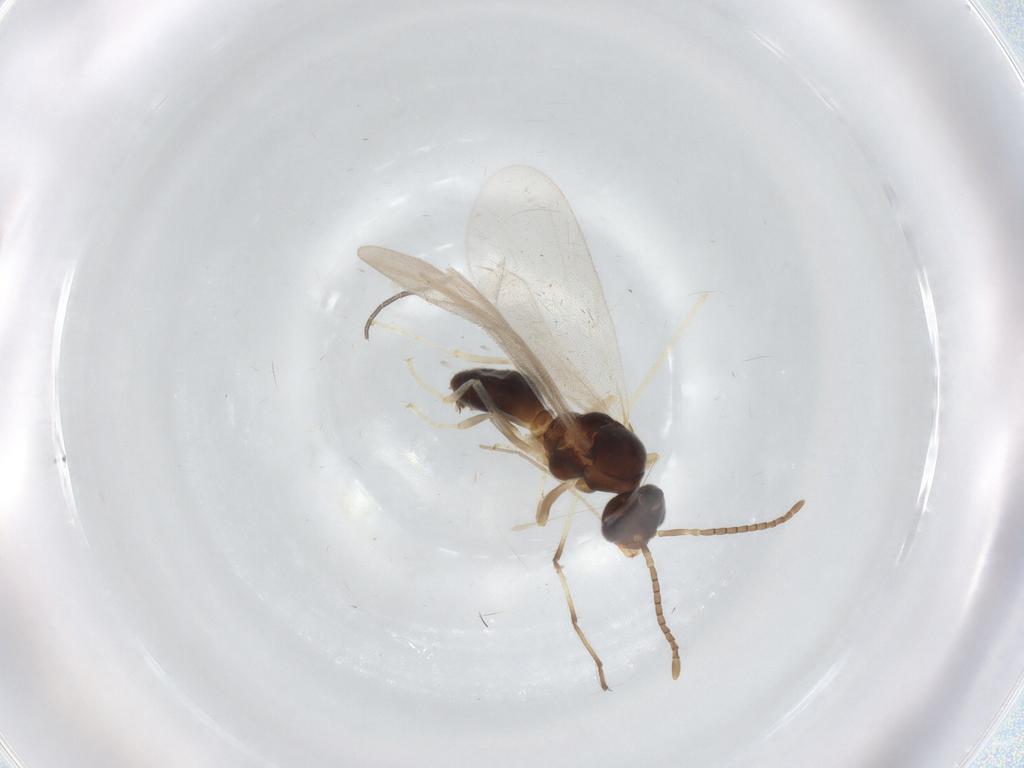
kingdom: Animalia
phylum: Arthropoda
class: Insecta
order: Hymenoptera
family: Formicidae
